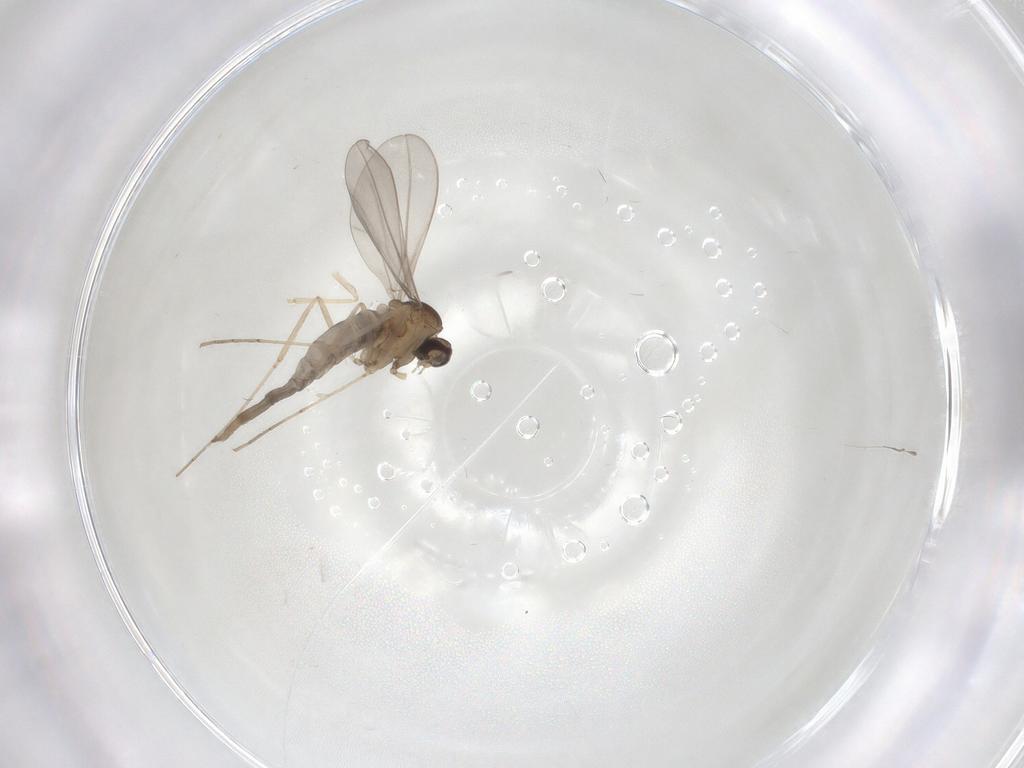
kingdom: Animalia
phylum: Arthropoda
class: Insecta
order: Diptera
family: Cecidomyiidae
